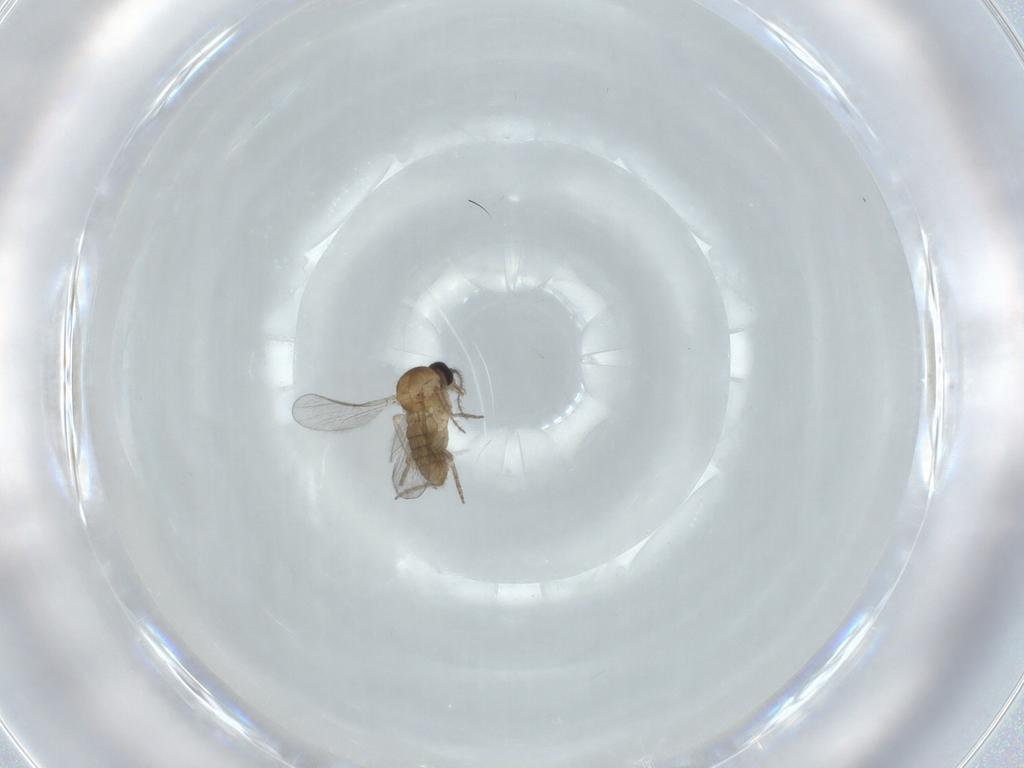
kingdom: Animalia
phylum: Arthropoda
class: Insecta
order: Diptera
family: Ceratopogonidae
